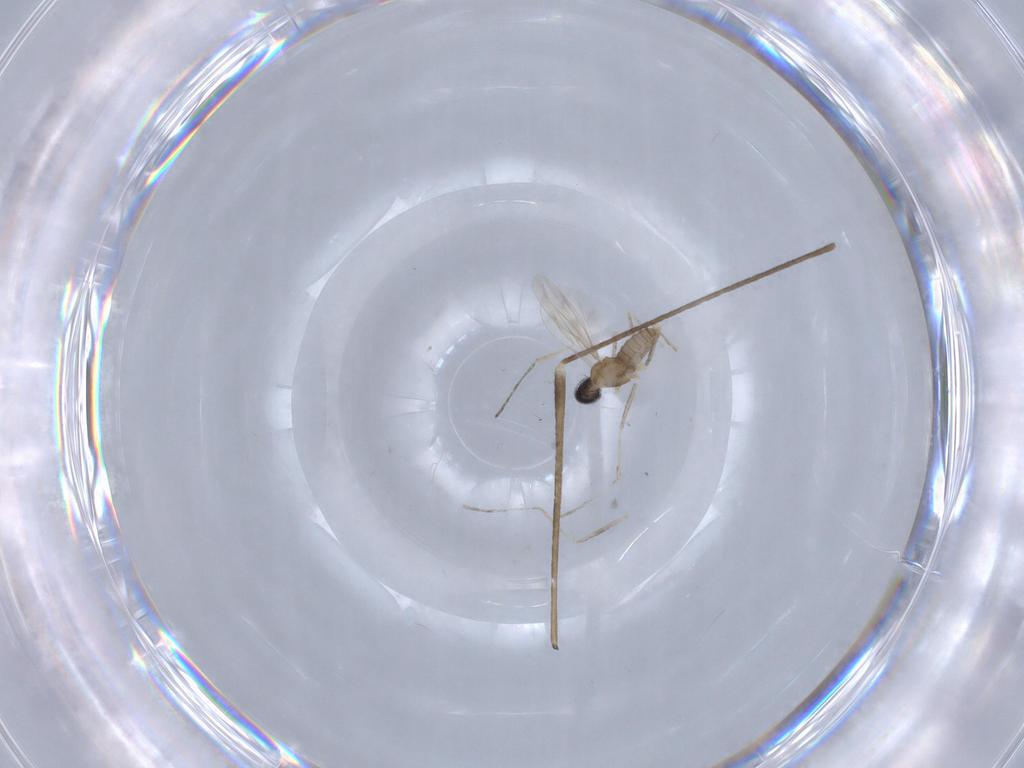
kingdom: Animalia
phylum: Arthropoda
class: Insecta
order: Diptera
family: Cecidomyiidae
